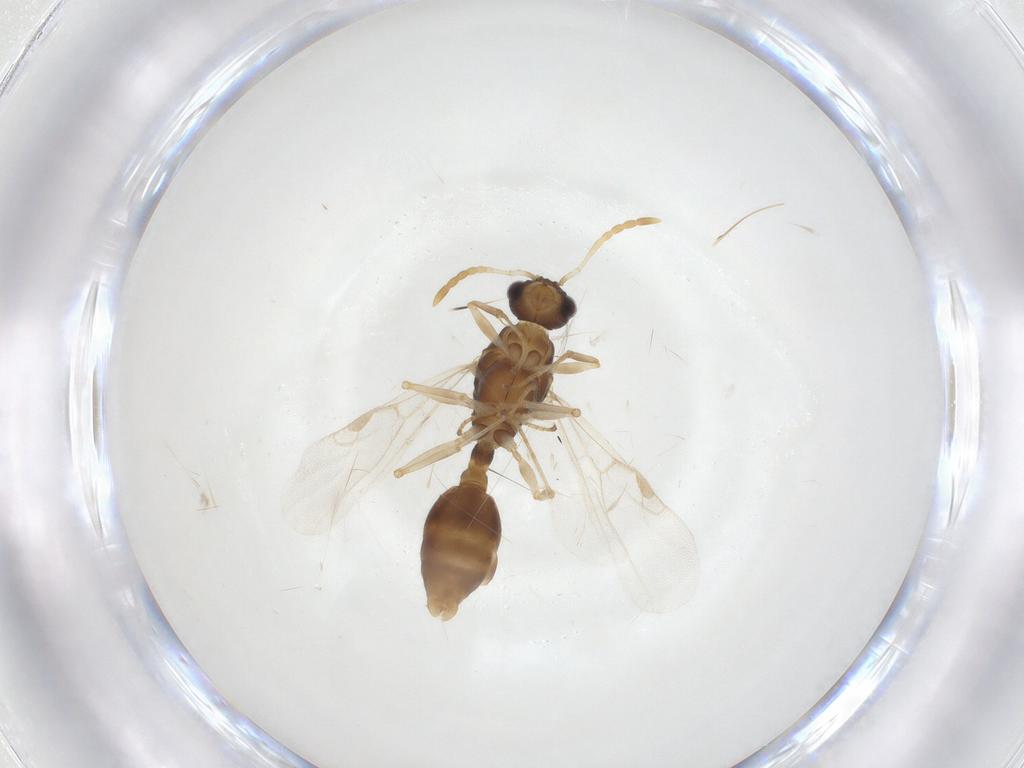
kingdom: Animalia
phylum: Arthropoda
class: Insecta
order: Hymenoptera
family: Formicidae
